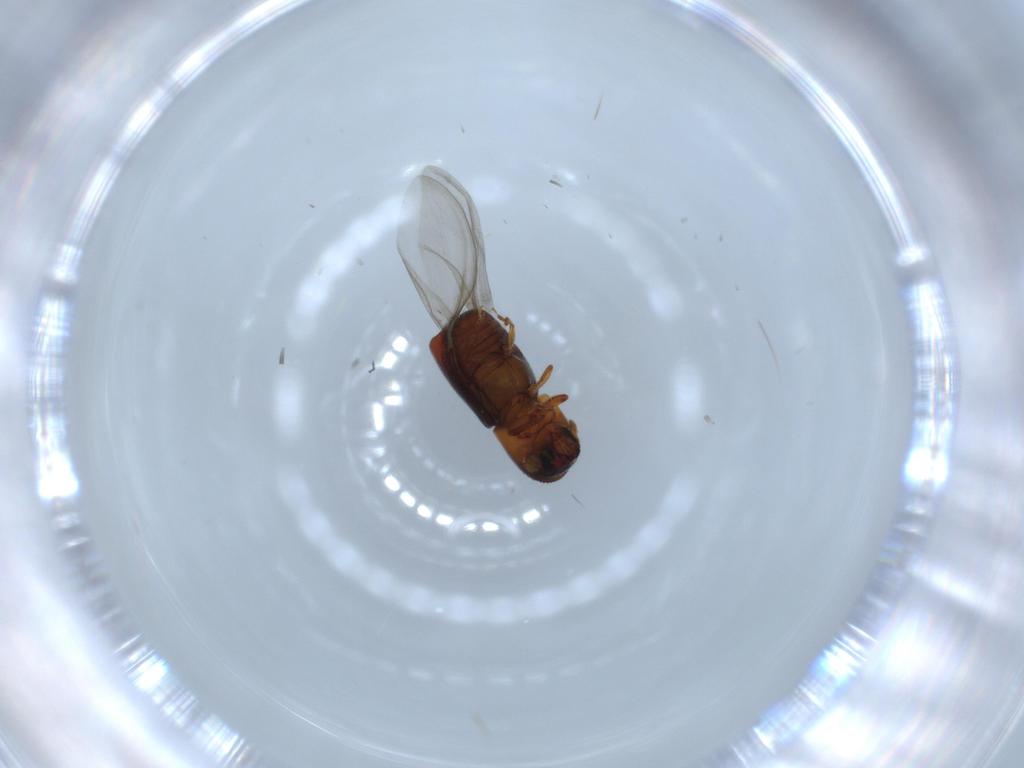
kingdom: Animalia
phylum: Arthropoda
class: Insecta
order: Coleoptera
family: Curculionidae
